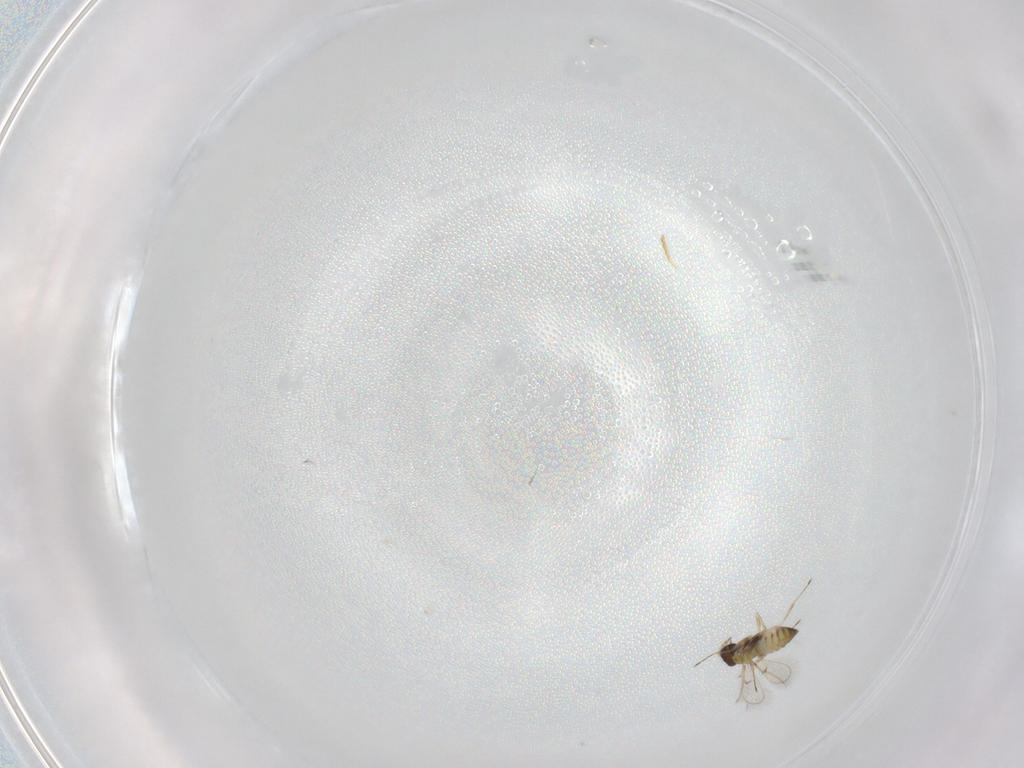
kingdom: Animalia
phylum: Arthropoda
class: Insecta
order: Hymenoptera
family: Trichogrammatidae
